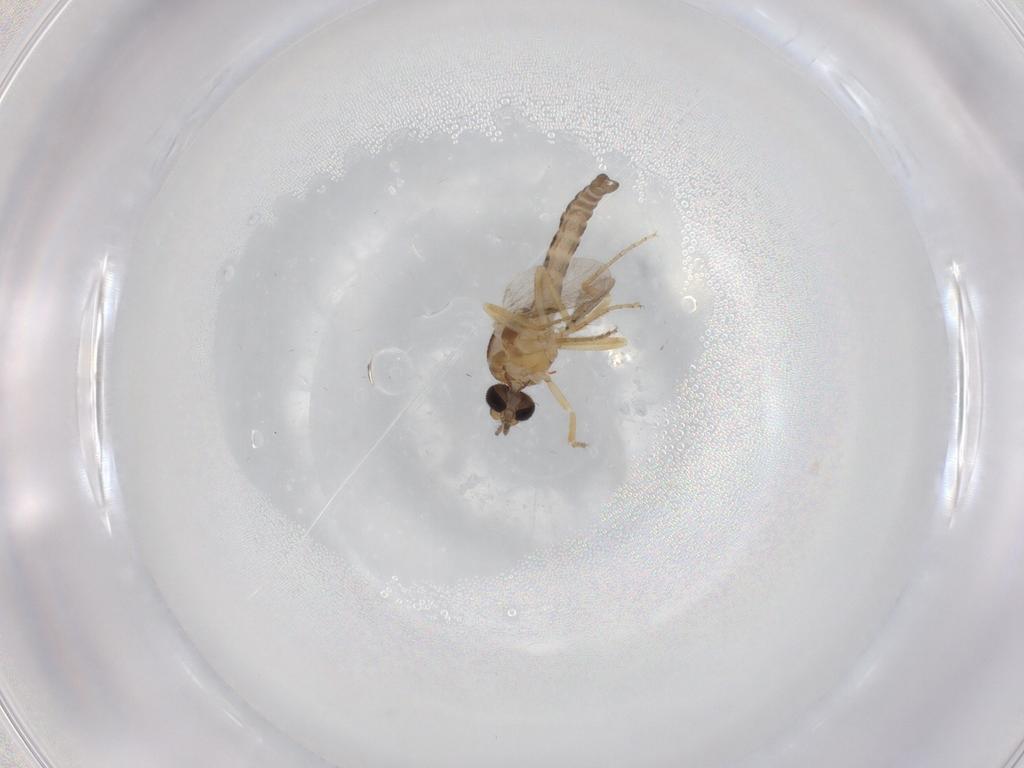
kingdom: Animalia
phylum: Arthropoda
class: Insecta
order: Diptera
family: Ceratopogonidae
